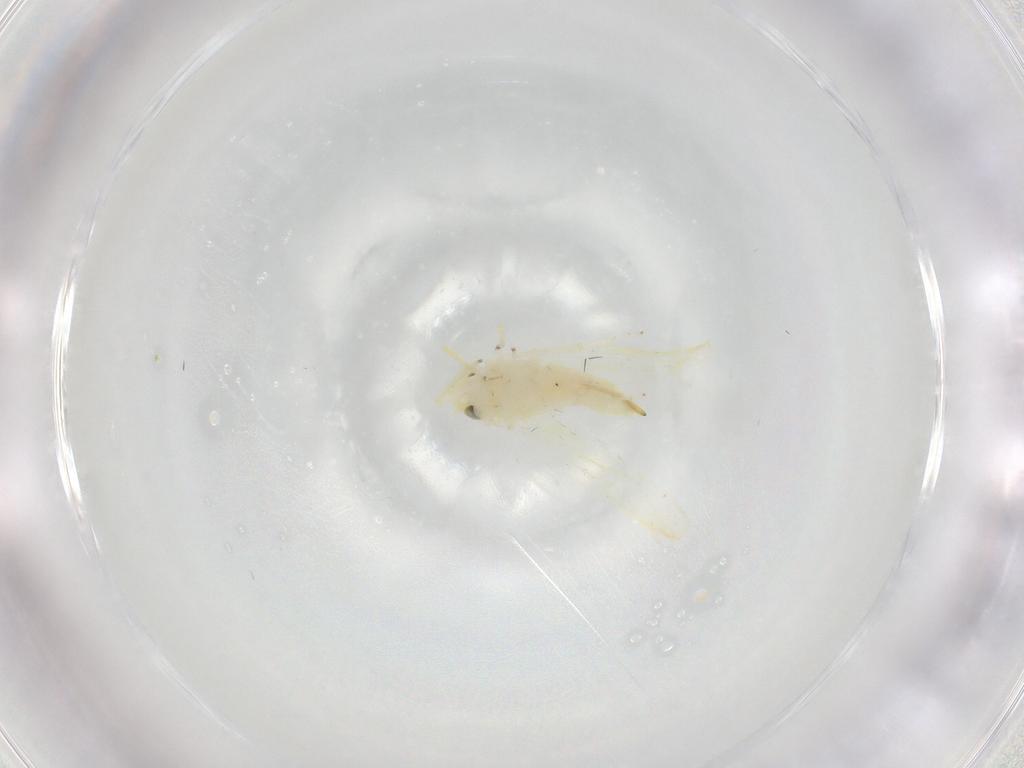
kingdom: Animalia
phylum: Arthropoda
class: Insecta
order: Hemiptera
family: Cicadellidae
